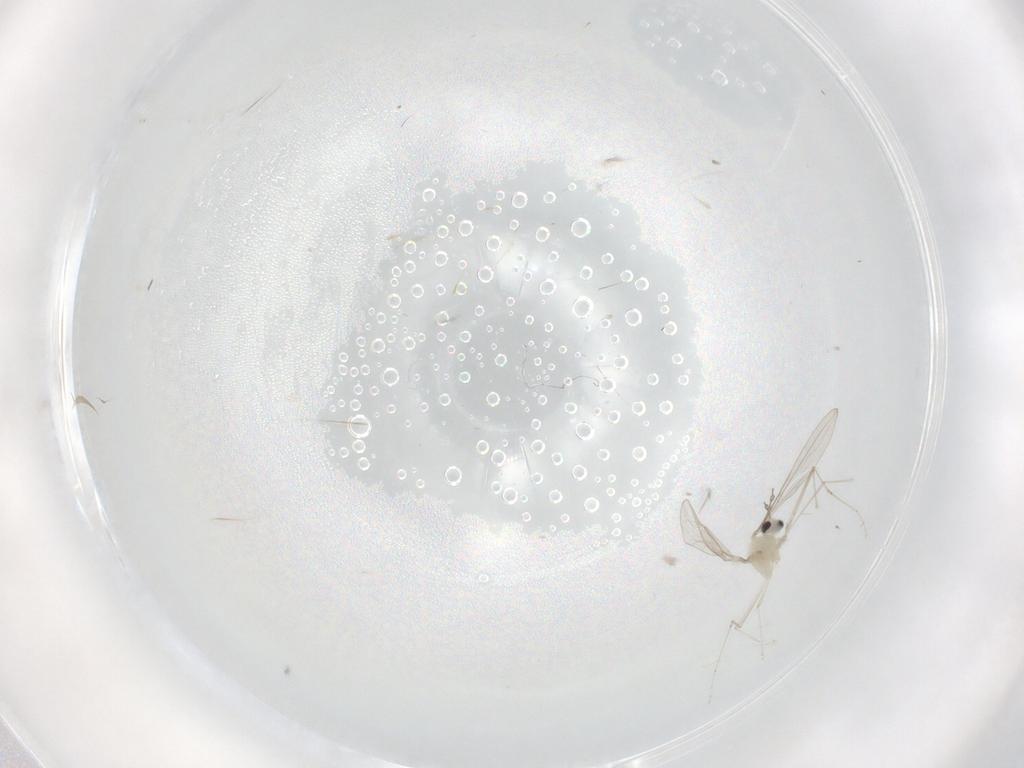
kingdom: Animalia
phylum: Arthropoda
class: Insecta
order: Diptera
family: Cecidomyiidae
